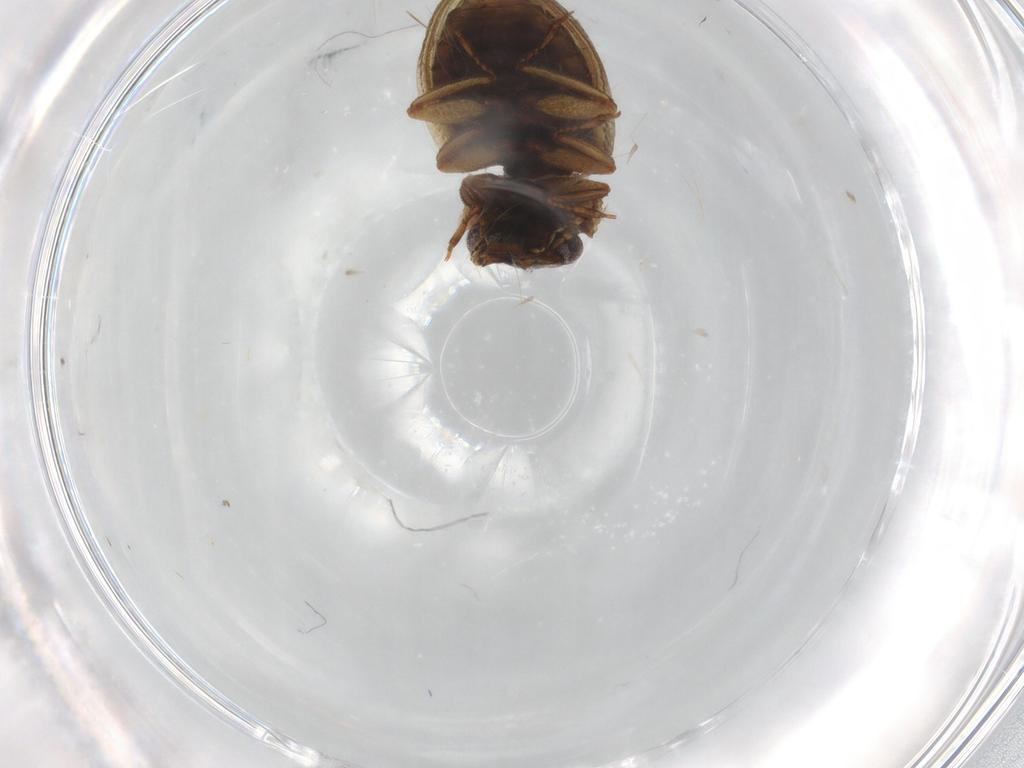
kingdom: Animalia
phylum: Arthropoda
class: Insecta
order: Coleoptera
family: Spercheidae
